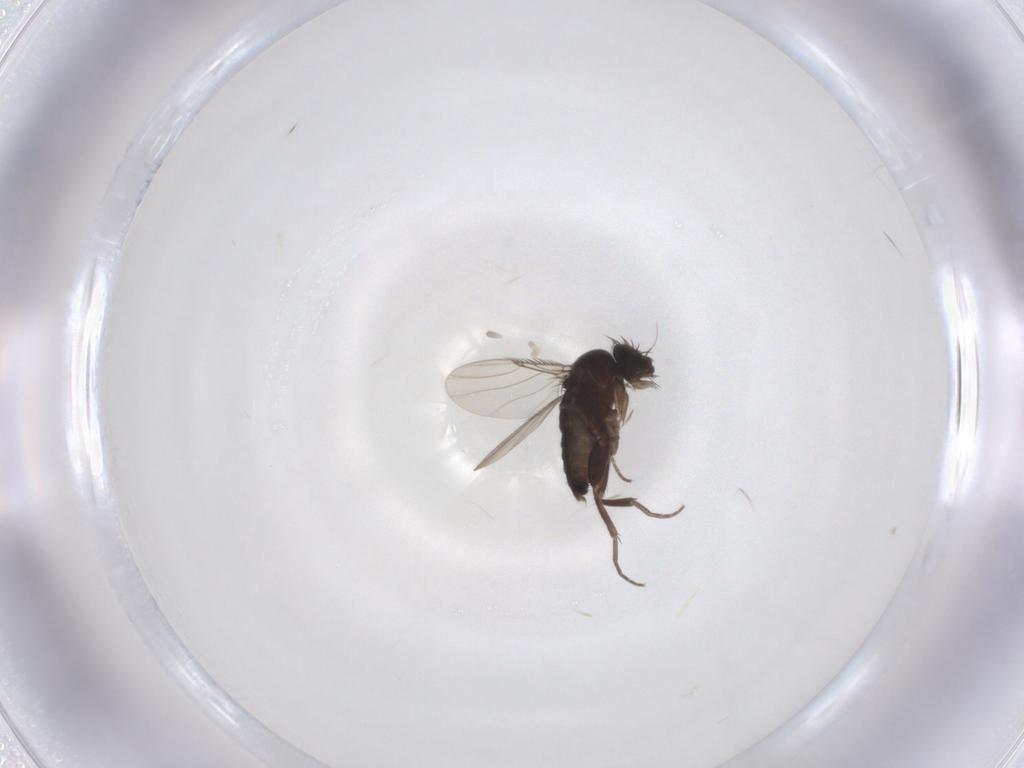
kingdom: Animalia
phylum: Arthropoda
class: Insecta
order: Diptera
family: Phoridae
